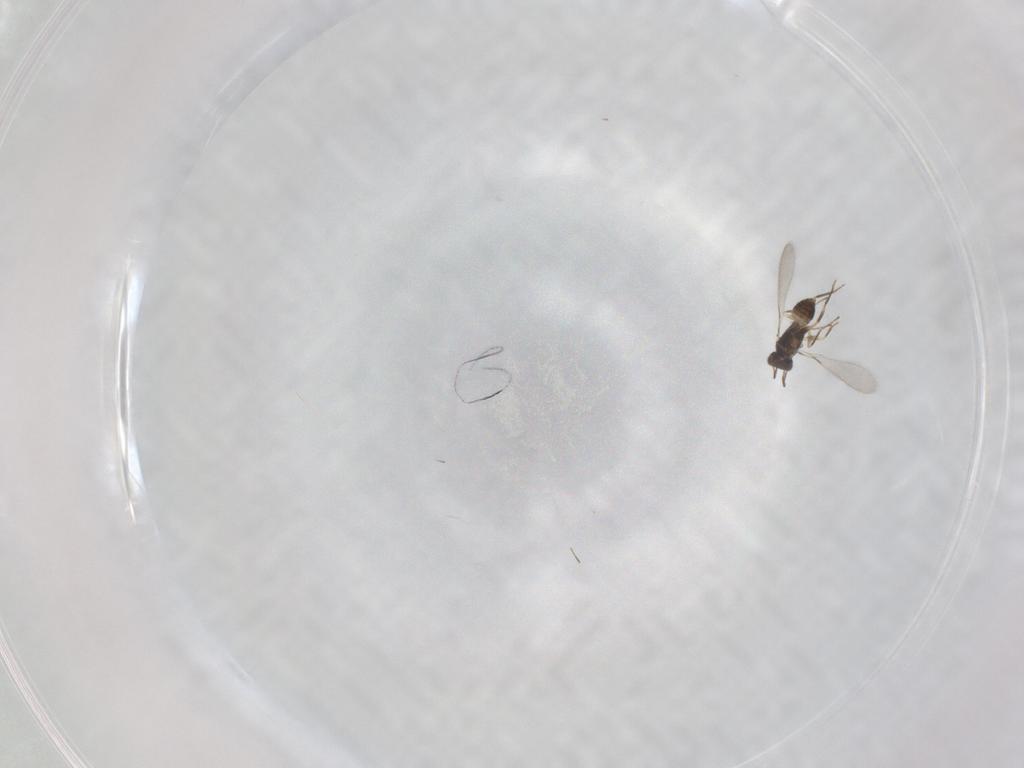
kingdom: Animalia
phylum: Arthropoda
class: Insecta
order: Hymenoptera
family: Mymaridae
